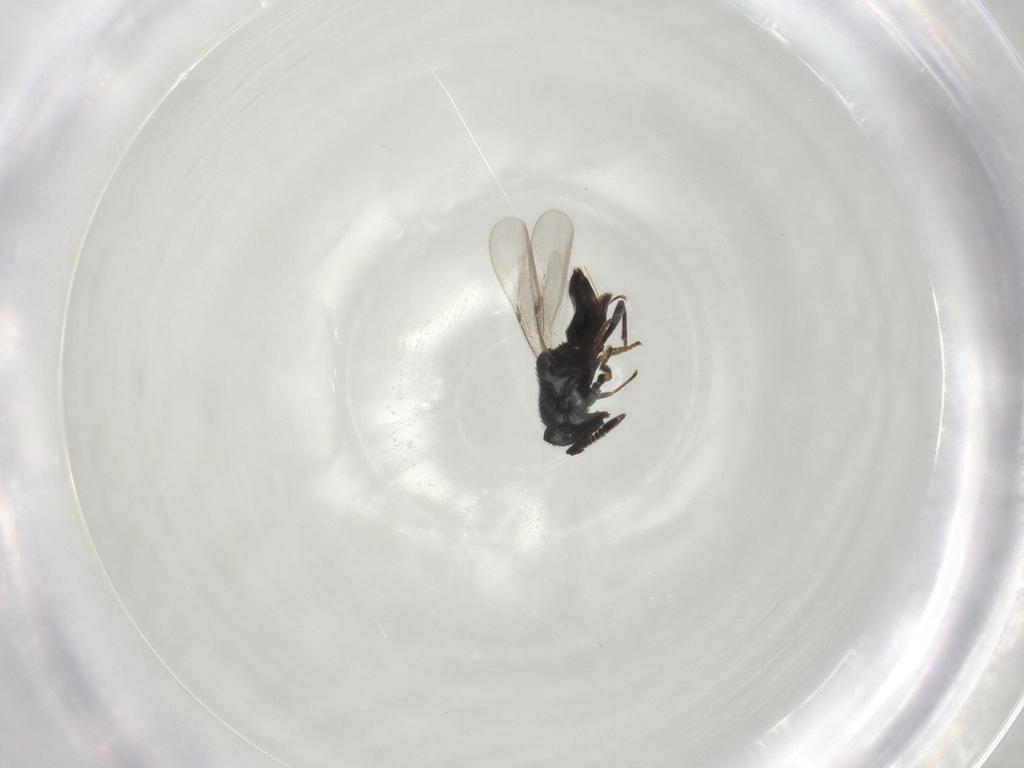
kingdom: Animalia
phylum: Arthropoda
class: Insecta
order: Hymenoptera
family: Encyrtidae
